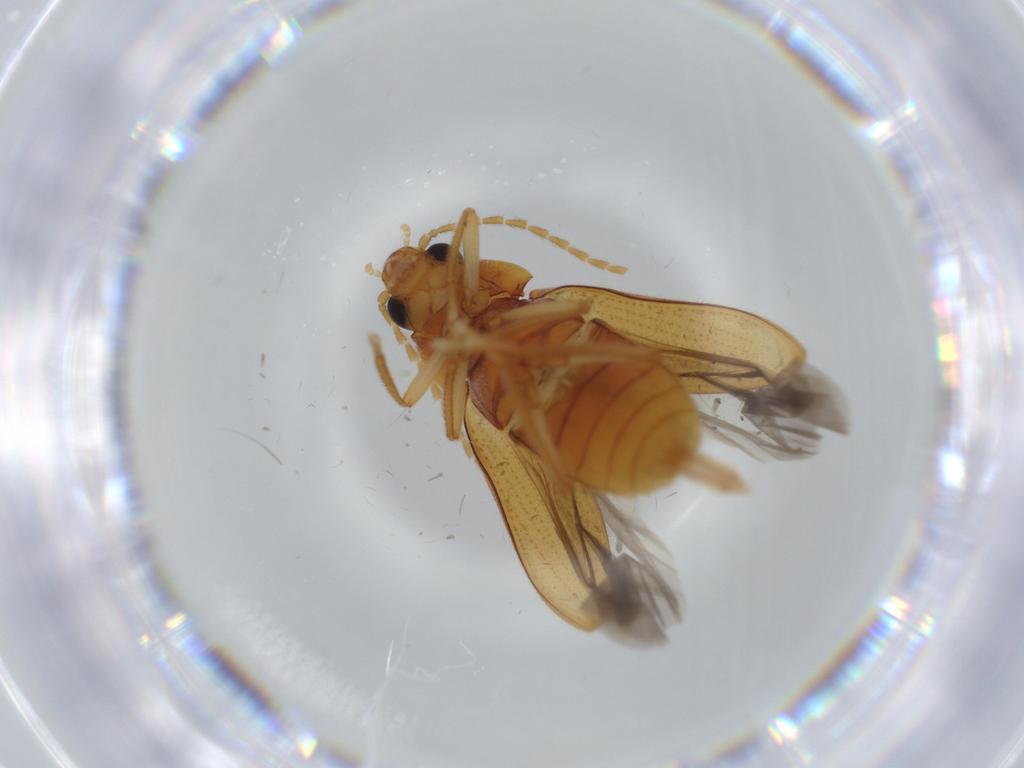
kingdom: Animalia
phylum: Arthropoda
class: Insecta
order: Coleoptera
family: Ptilodactylidae
